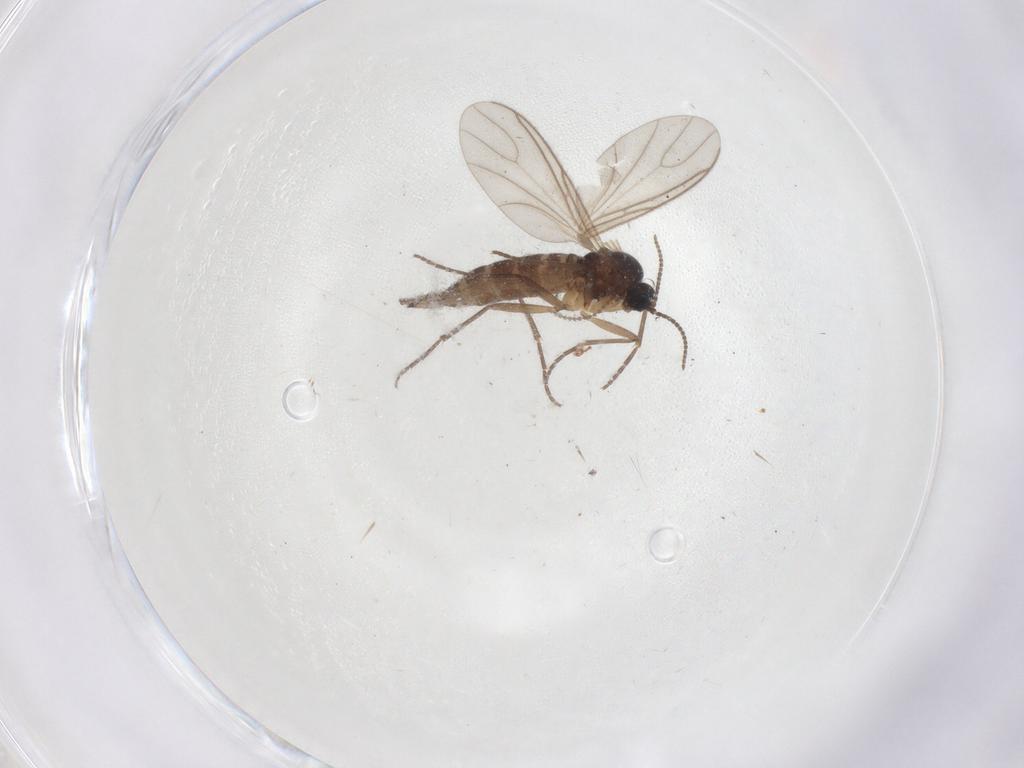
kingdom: Animalia
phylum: Arthropoda
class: Insecta
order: Diptera
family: Sciaridae
